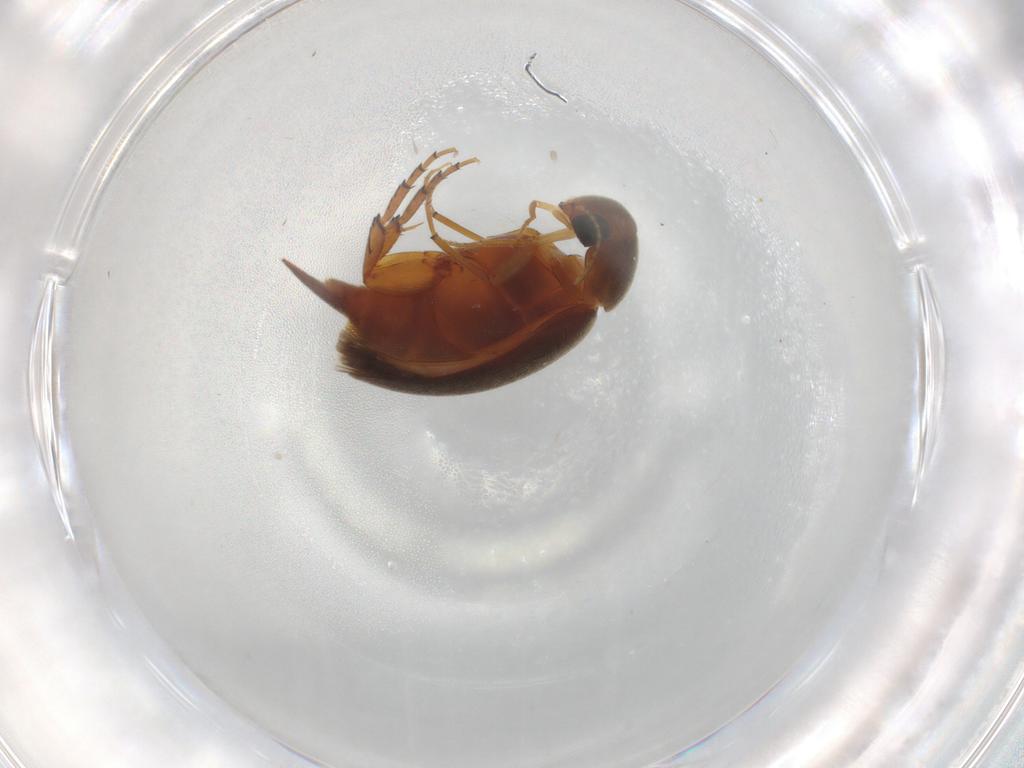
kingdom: Animalia
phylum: Arthropoda
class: Insecta
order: Coleoptera
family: Mordellidae
